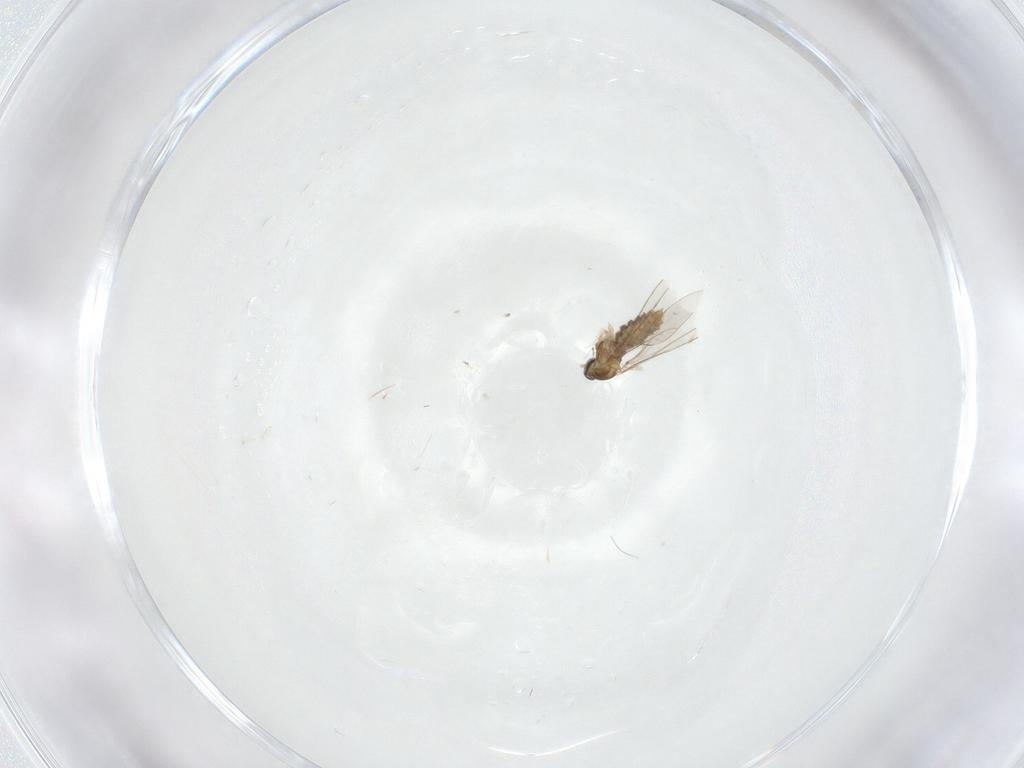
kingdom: Animalia
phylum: Arthropoda
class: Insecta
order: Diptera
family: Cecidomyiidae
